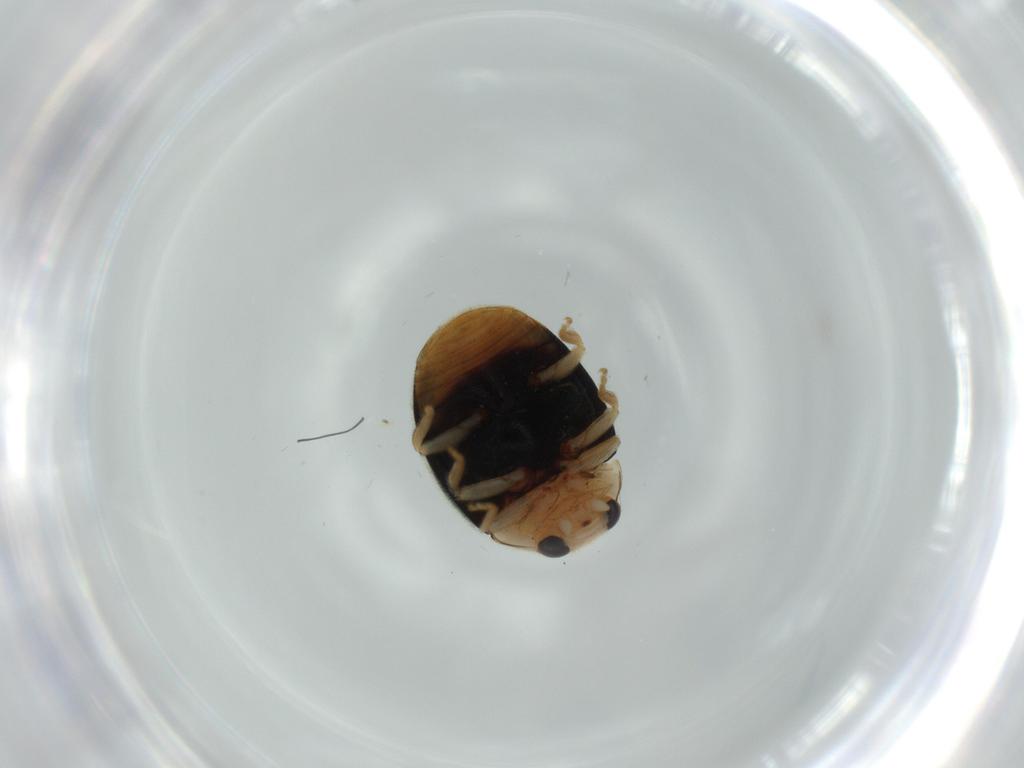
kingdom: Animalia
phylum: Arthropoda
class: Insecta
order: Coleoptera
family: Coccinellidae
